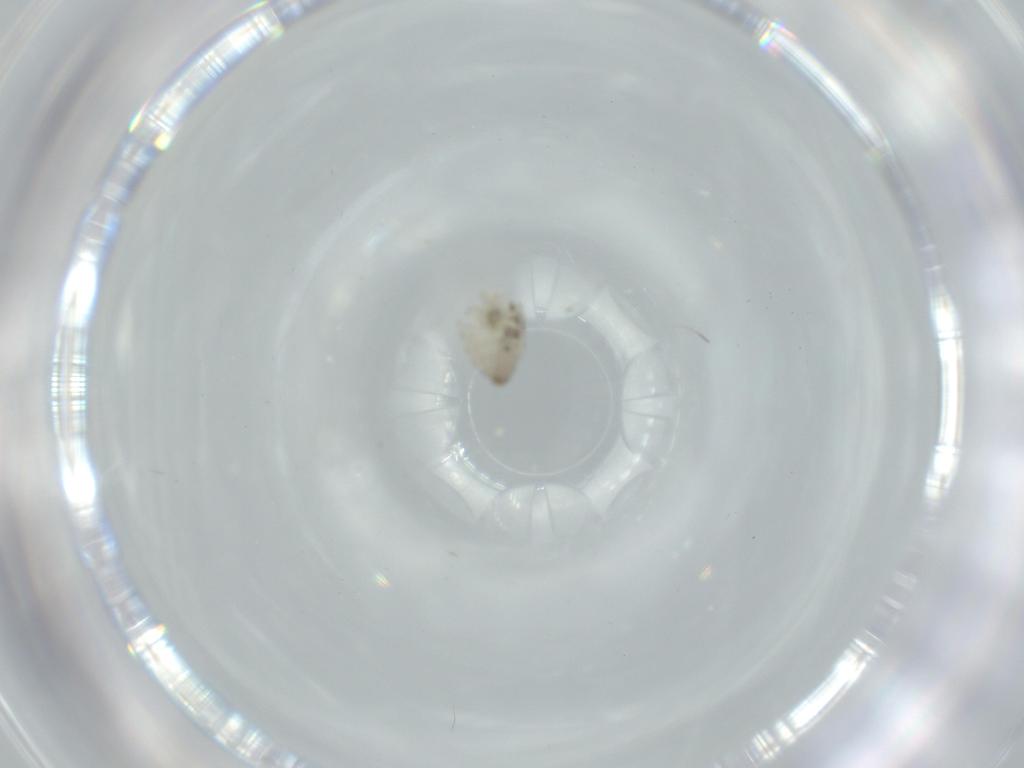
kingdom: Animalia
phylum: Arthropoda
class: Insecta
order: Diptera
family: Cecidomyiidae
